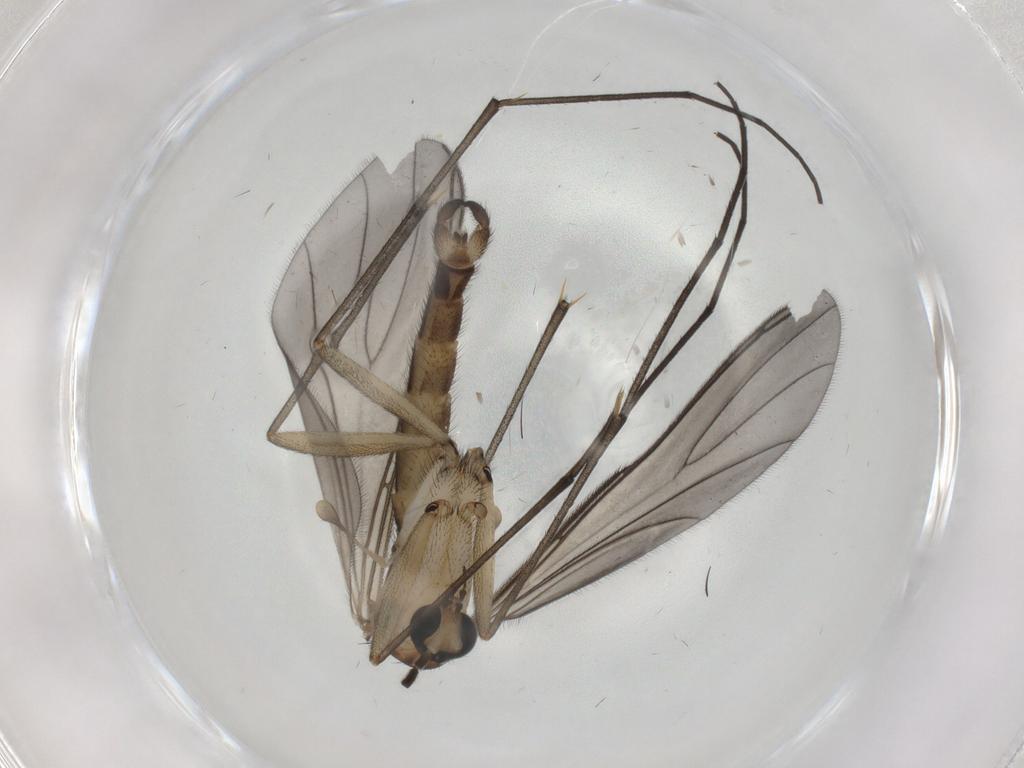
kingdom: Animalia
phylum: Arthropoda
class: Insecta
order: Diptera
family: Sciaridae
